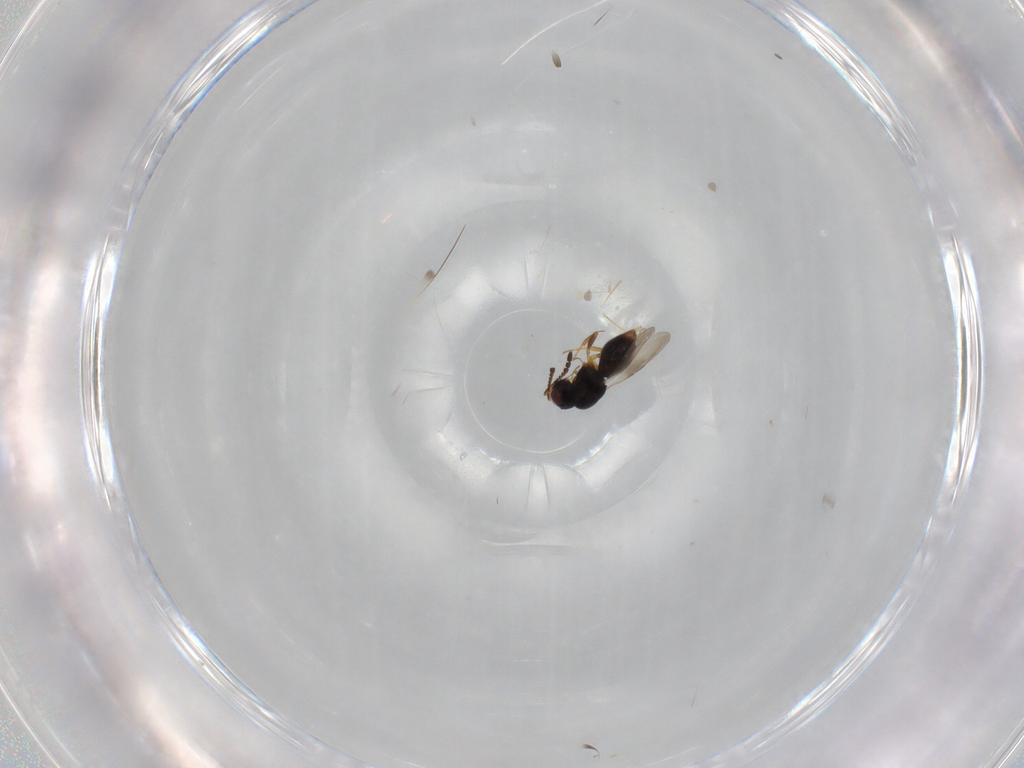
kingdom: Animalia
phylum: Arthropoda
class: Insecta
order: Hymenoptera
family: Ceraphronidae
